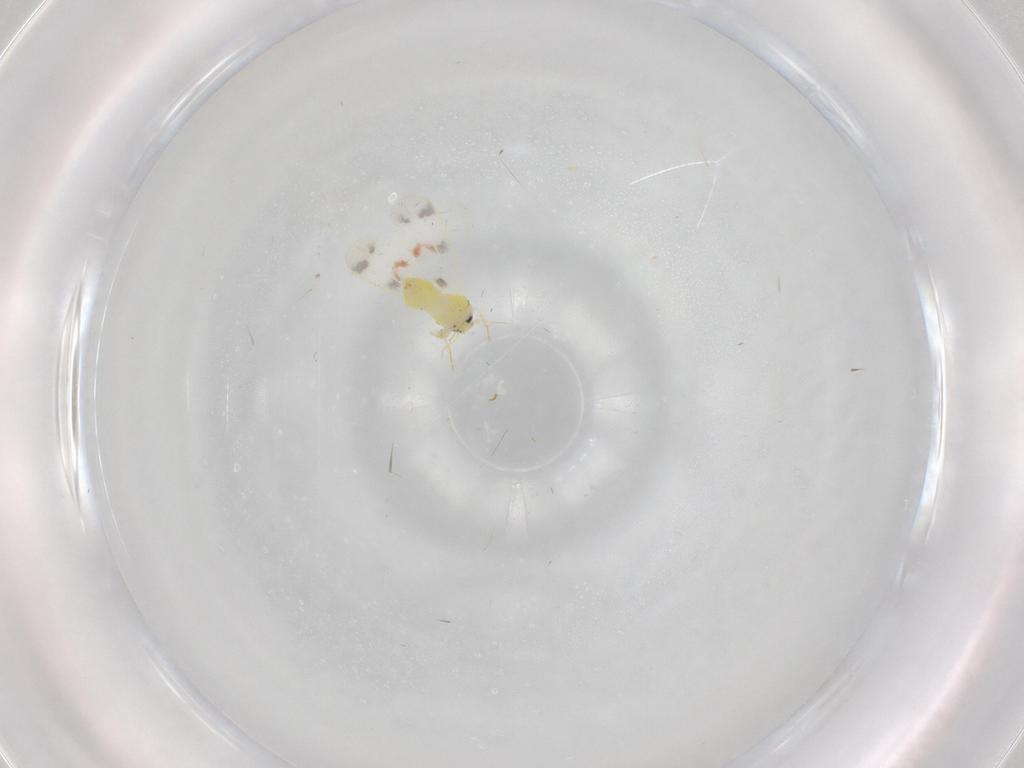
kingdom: Animalia
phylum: Arthropoda
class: Insecta
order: Hemiptera
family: Aleyrodidae
